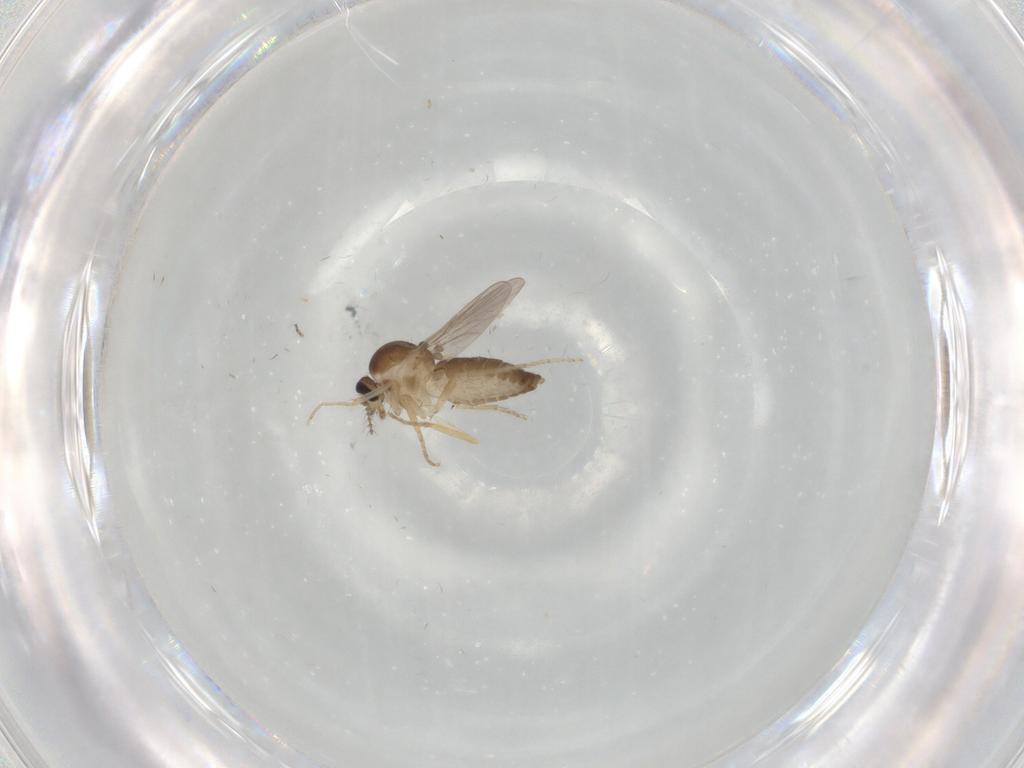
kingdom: Animalia
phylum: Arthropoda
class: Insecta
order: Diptera
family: Ceratopogonidae
